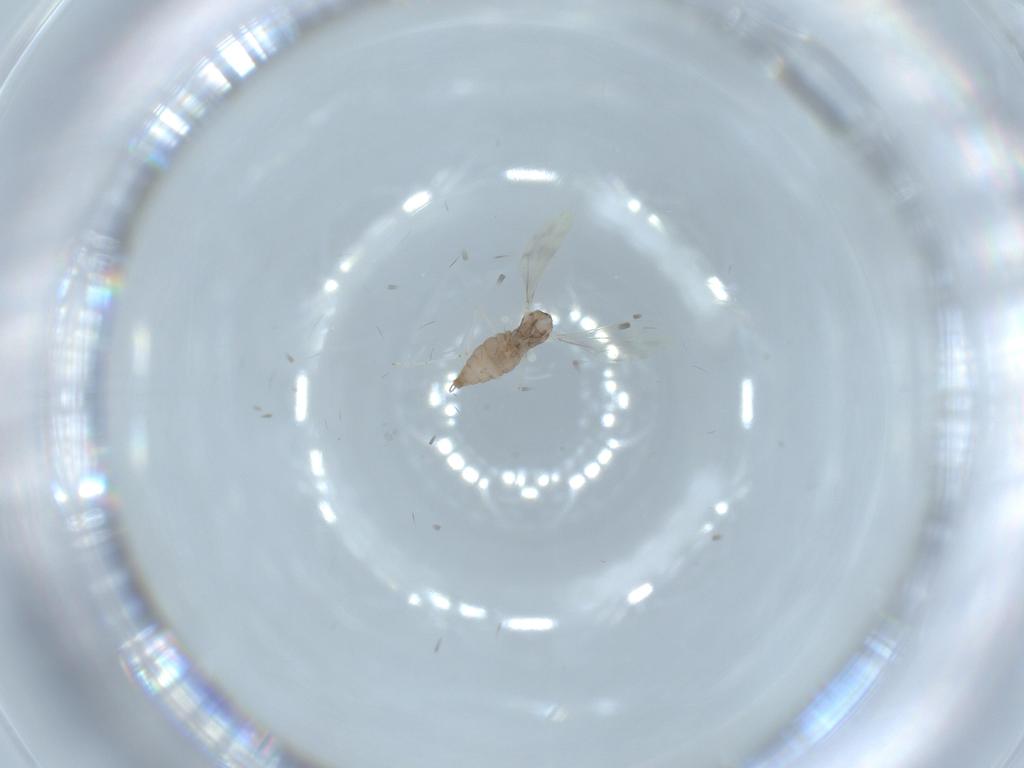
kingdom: Animalia
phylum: Arthropoda
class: Insecta
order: Diptera
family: Cecidomyiidae
